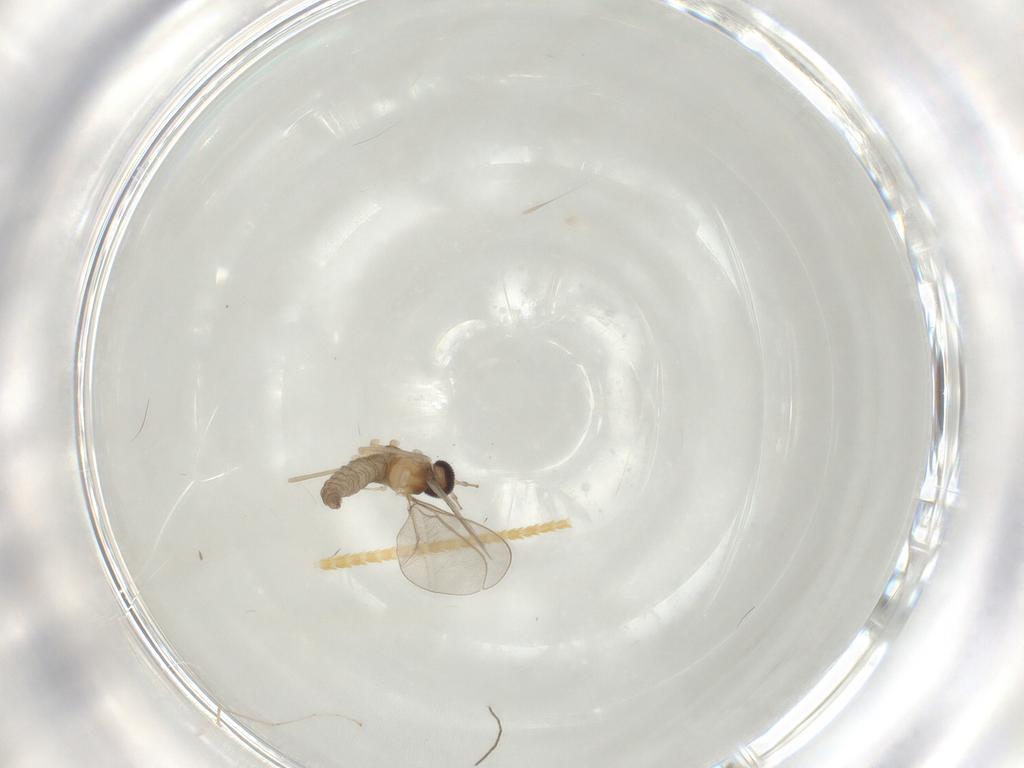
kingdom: Animalia
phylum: Arthropoda
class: Insecta
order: Diptera
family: Cecidomyiidae
